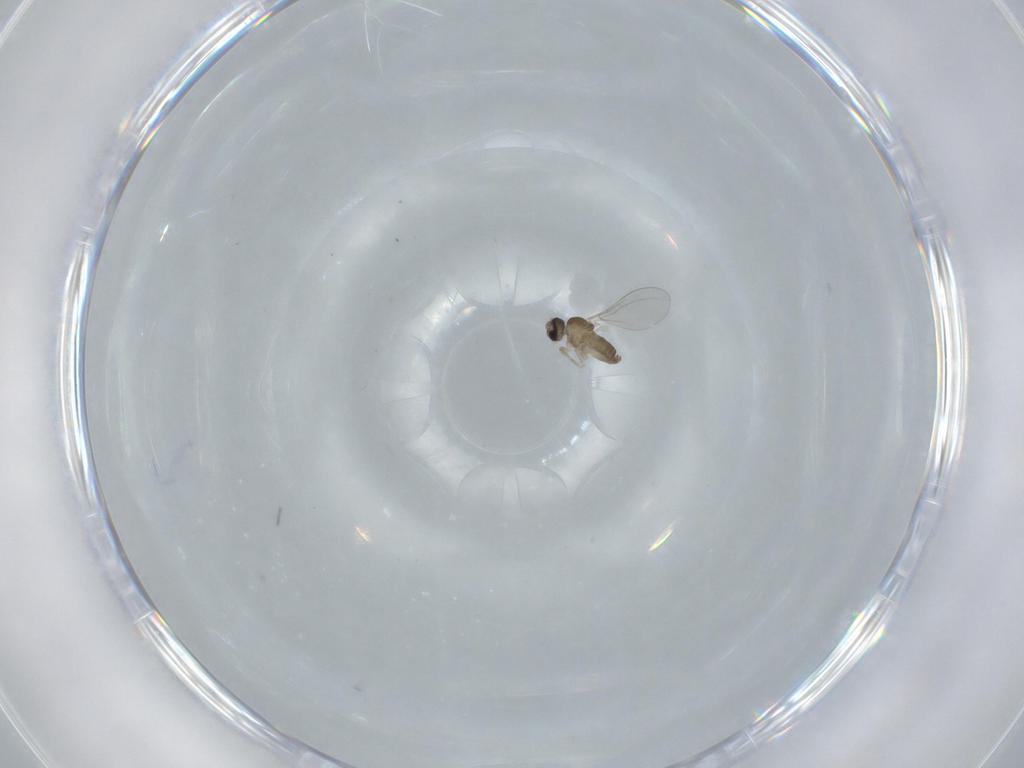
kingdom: Animalia
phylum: Arthropoda
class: Insecta
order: Diptera
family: Cecidomyiidae
